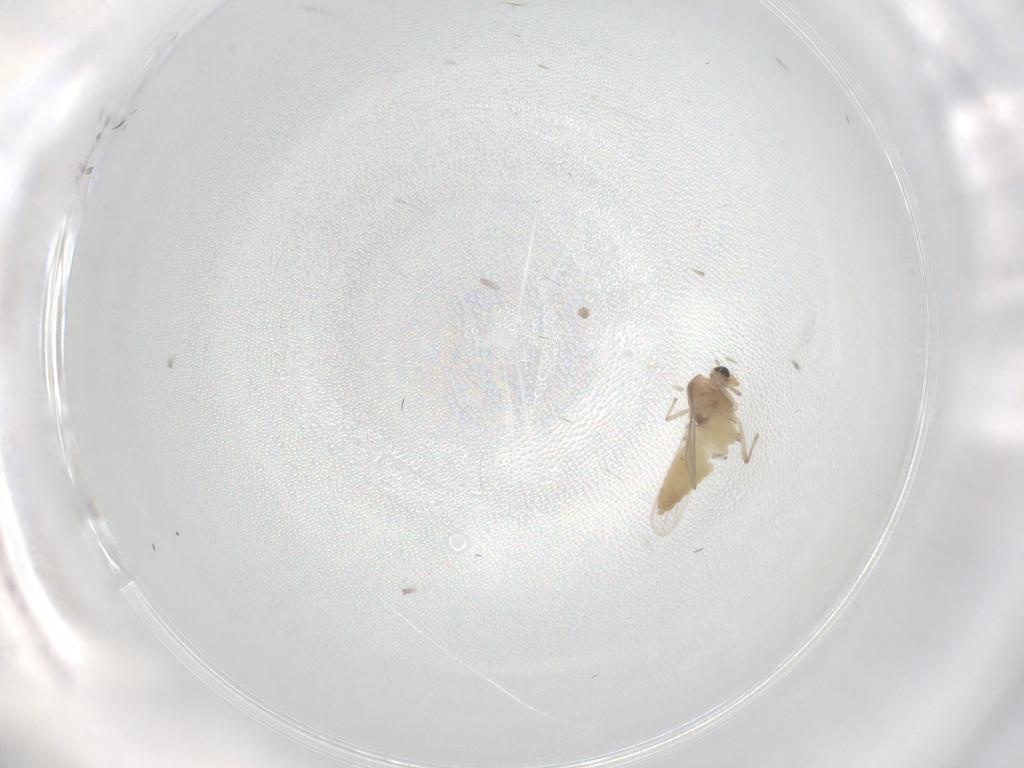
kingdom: Animalia
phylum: Arthropoda
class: Insecta
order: Diptera
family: Chironomidae
